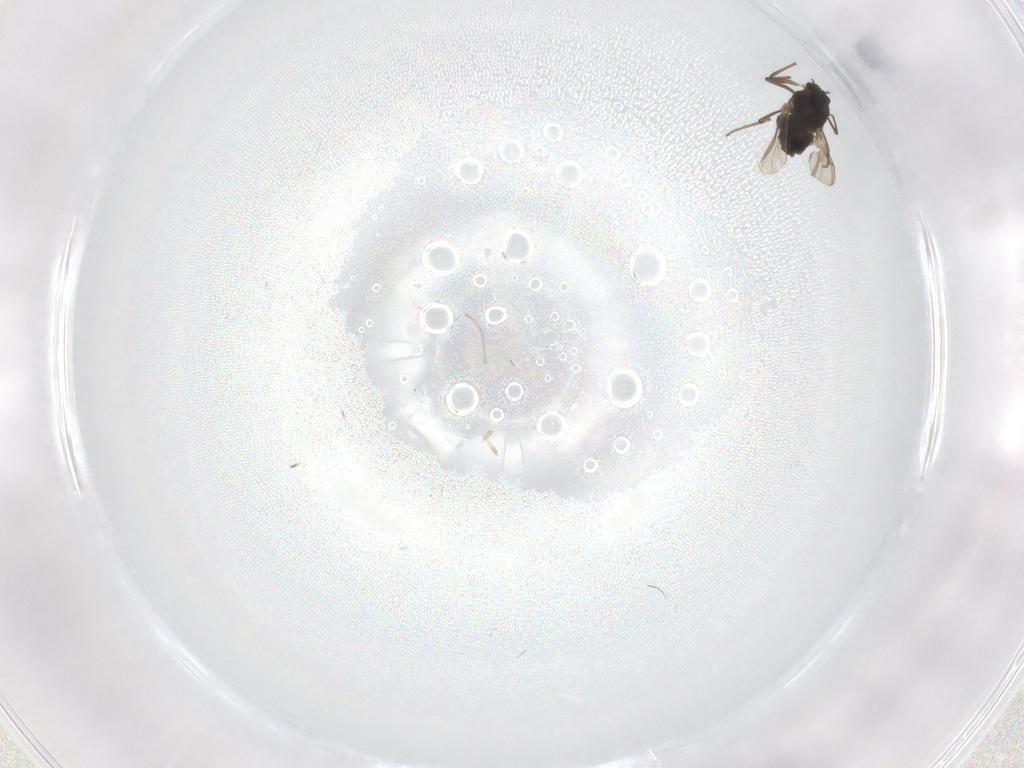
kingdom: Animalia
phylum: Arthropoda
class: Insecta
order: Diptera
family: Chironomidae
